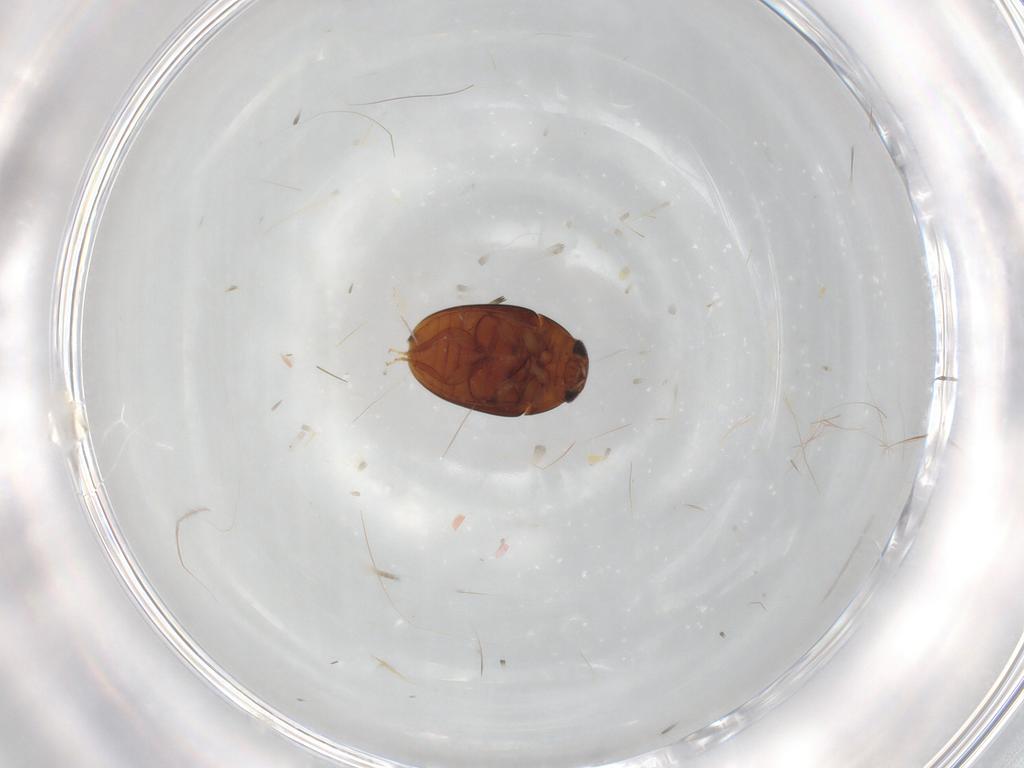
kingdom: Animalia
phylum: Arthropoda
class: Insecta
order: Coleoptera
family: Phalacridae
